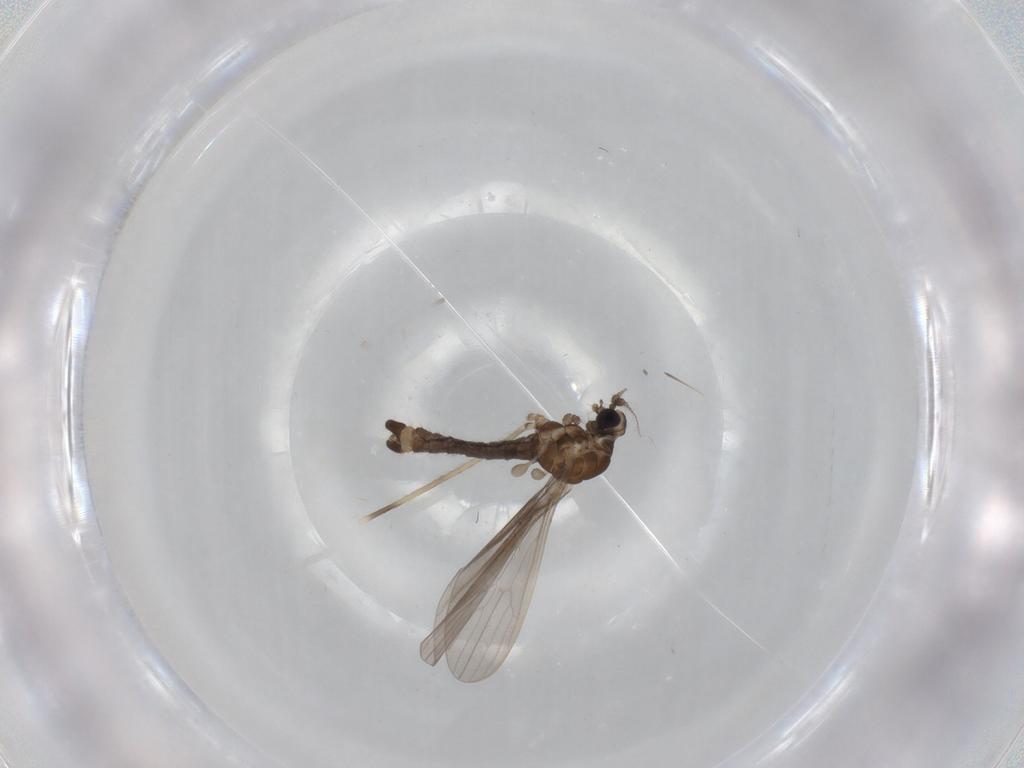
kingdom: Animalia
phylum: Arthropoda
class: Insecta
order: Diptera
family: Limoniidae
